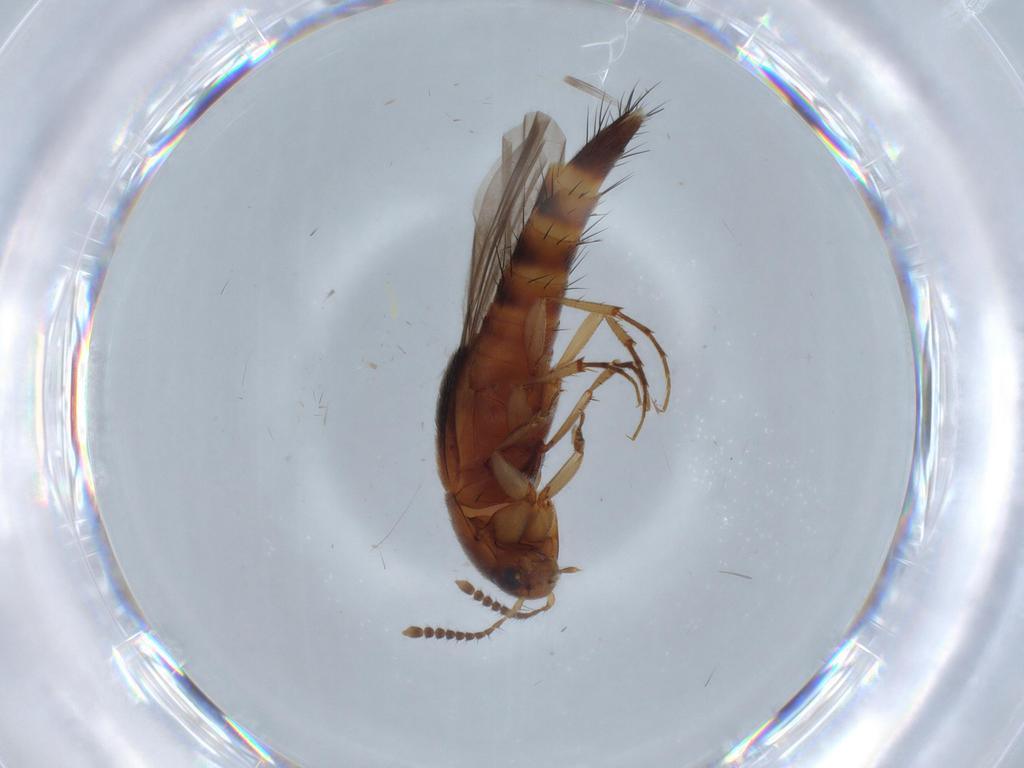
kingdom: Animalia
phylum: Arthropoda
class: Insecta
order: Coleoptera
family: Staphylinidae
